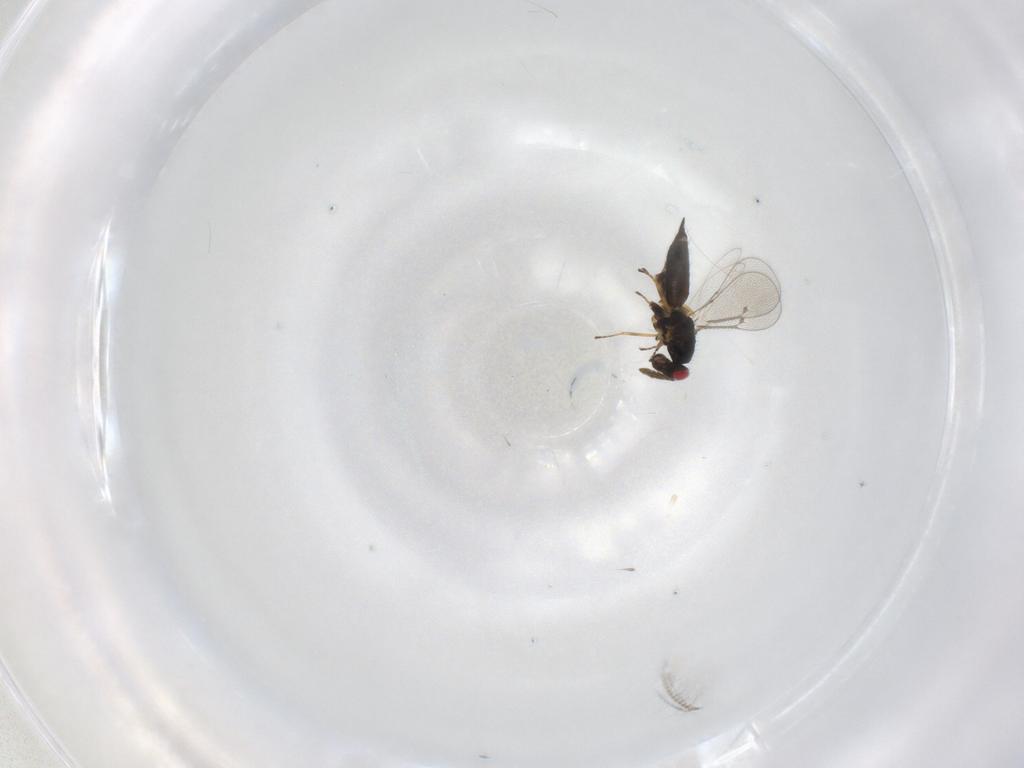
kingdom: Animalia
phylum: Arthropoda
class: Insecta
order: Hymenoptera
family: Eulophidae
